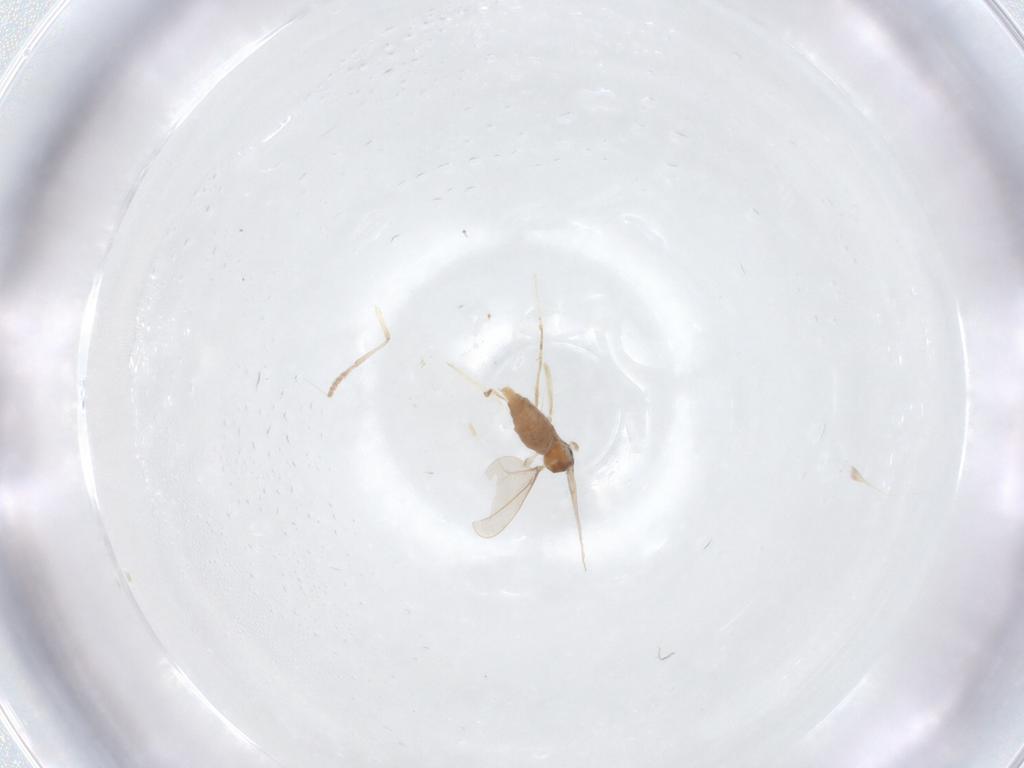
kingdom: Animalia
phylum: Arthropoda
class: Insecta
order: Diptera
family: Cecidomyiidae
